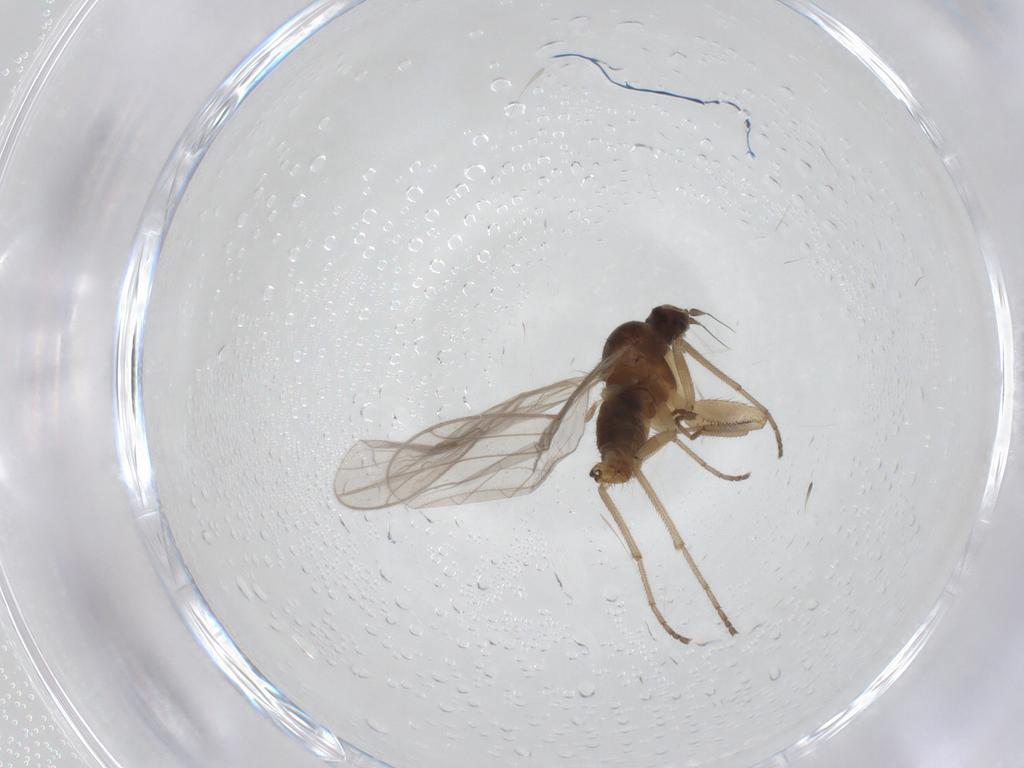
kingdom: Animalia
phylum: Arthropoda
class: Insecta
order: Diptera
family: Empididae
